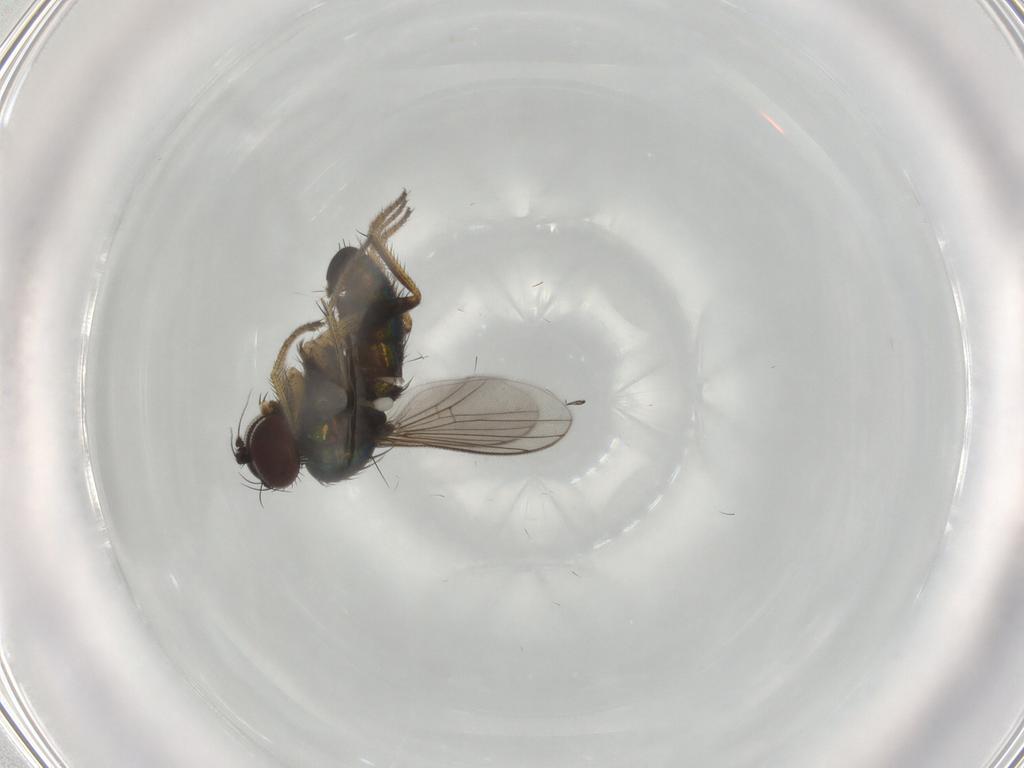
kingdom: Animalia
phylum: Arthropoda
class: Insecta
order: Diptera
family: Dolichopodidae
